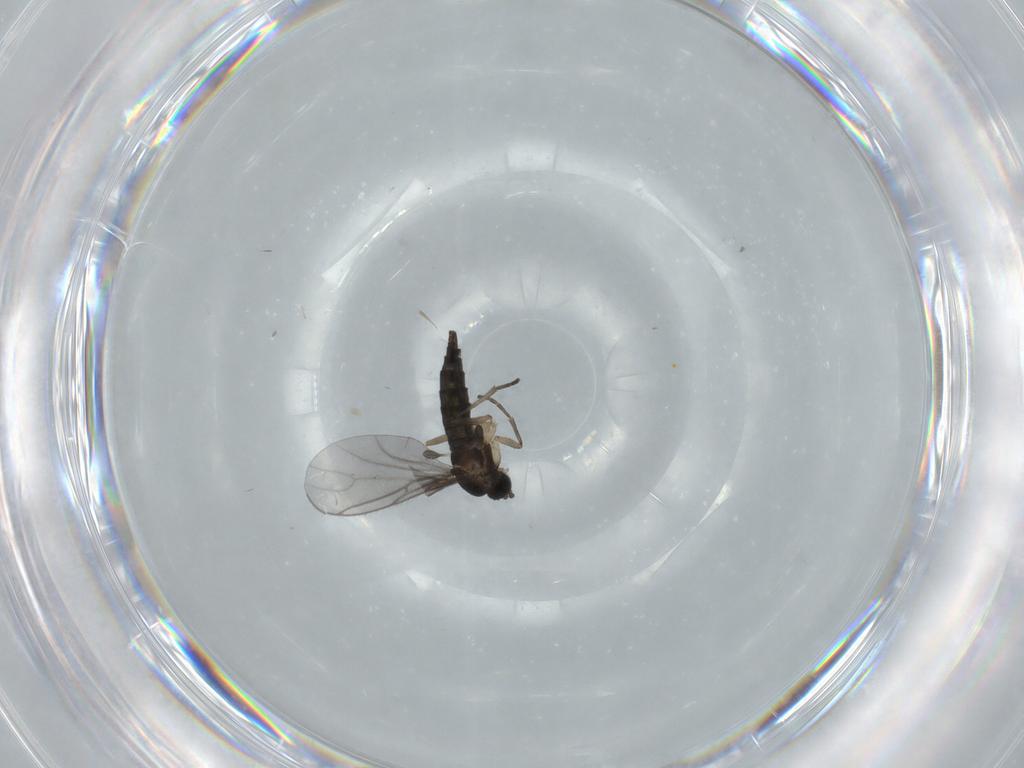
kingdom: Animalia
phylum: Arthropoda
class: Insecta
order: Diptera
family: Sciaridae
